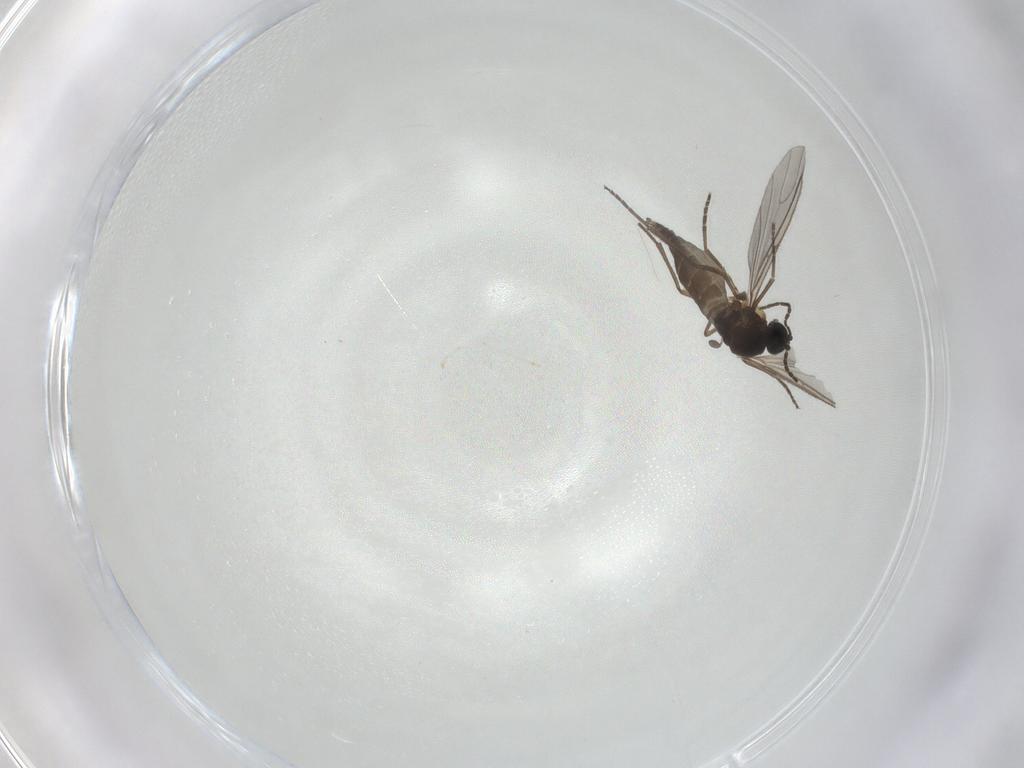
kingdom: Animalia
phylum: Arthropoda
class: Insecta
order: Diptera
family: Sciaridae
